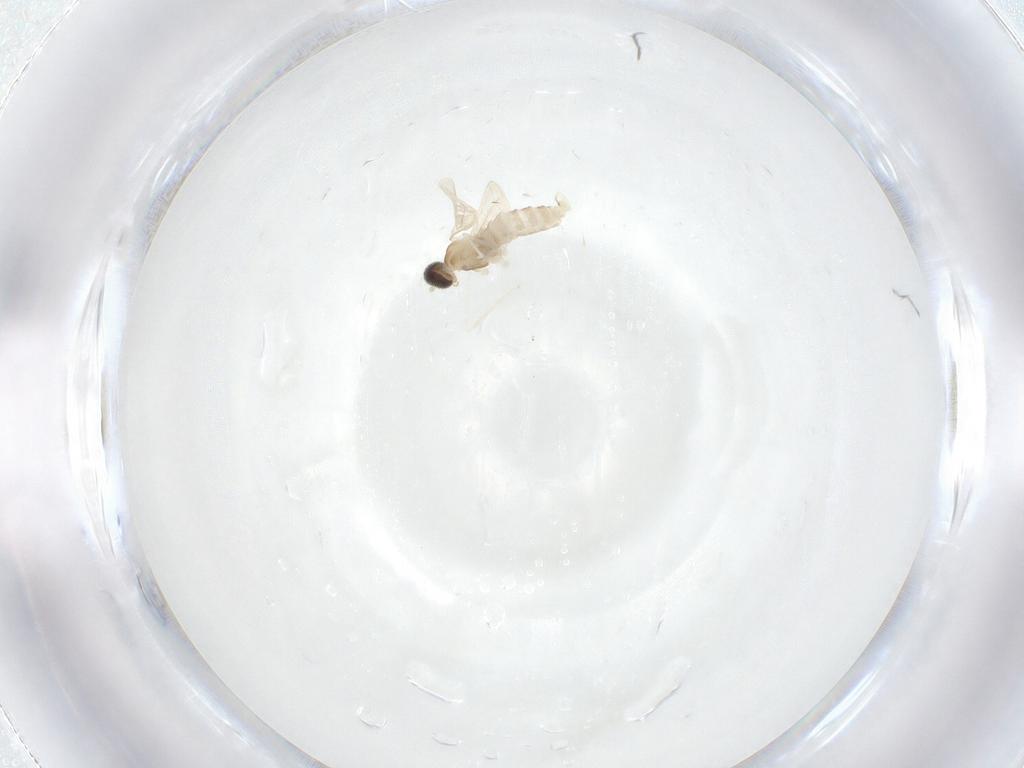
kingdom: Animalia
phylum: Arthropoda
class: Insecta
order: Diptera
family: Cecidomyiidae
